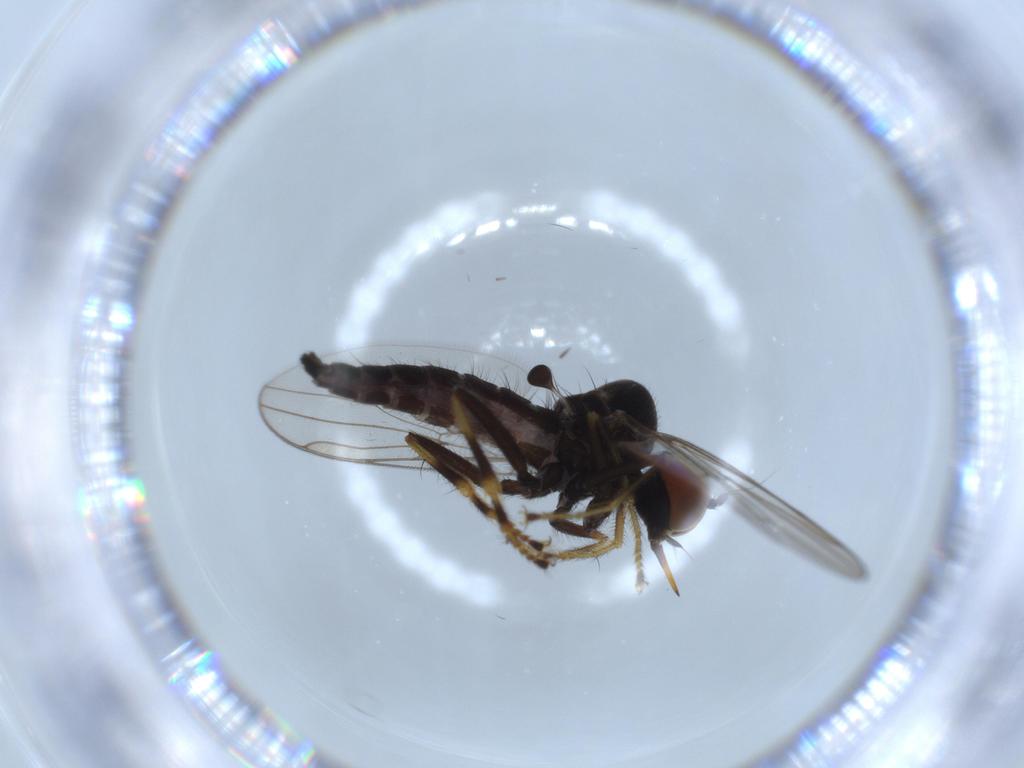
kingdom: Animalia
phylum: Arthropoda
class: Insecta
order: Diptera
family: Hybotidae
